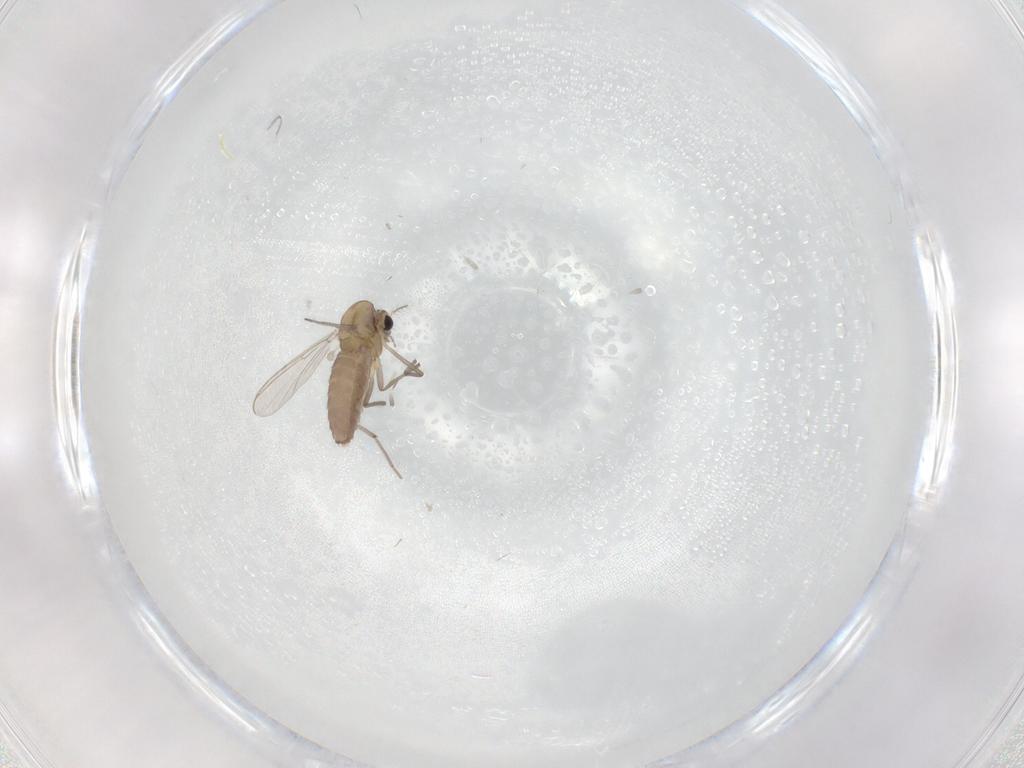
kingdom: Animalia
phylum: Arthropoda
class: Insecta
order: Diptera
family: Chironomidae
